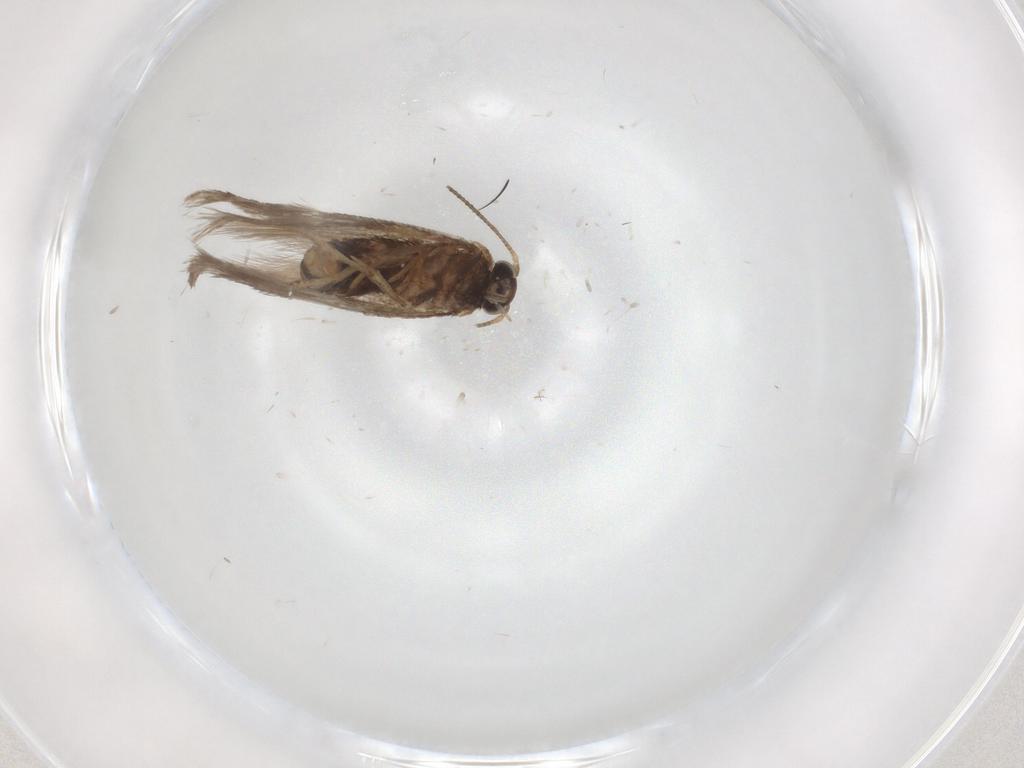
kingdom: Animalia
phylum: Arthropoda
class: Insecta
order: Lepidoptera
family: Nepticulidae
